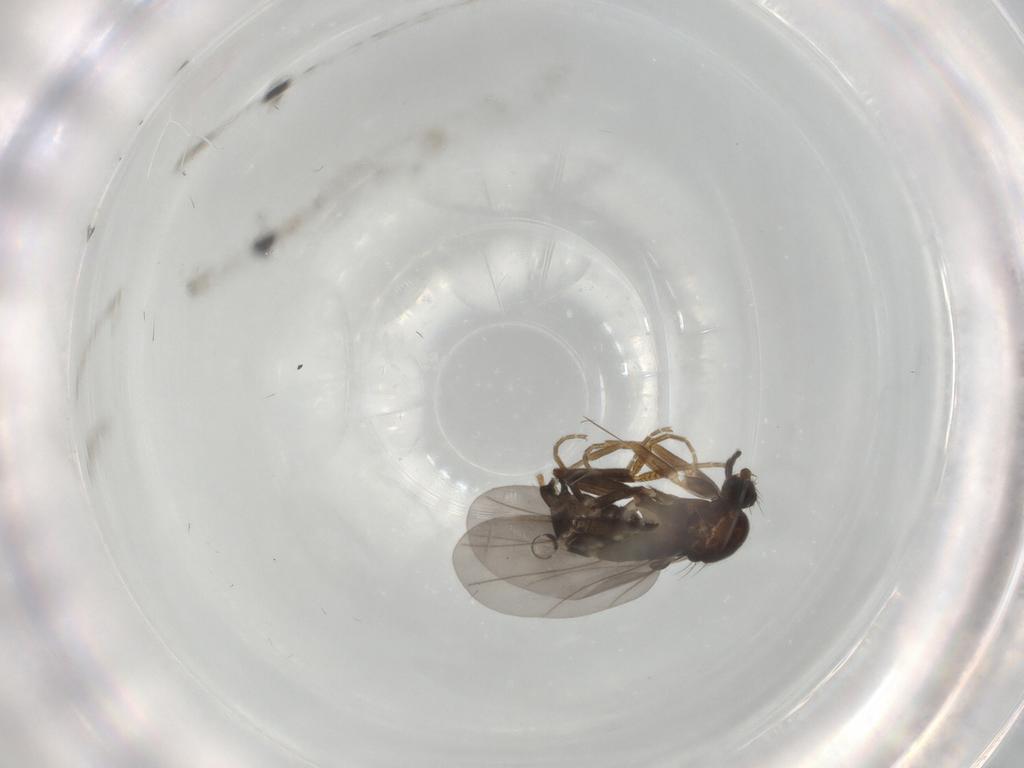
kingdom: Animalia
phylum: Arthropoda
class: Insecta
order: Diptera
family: Phoridae
